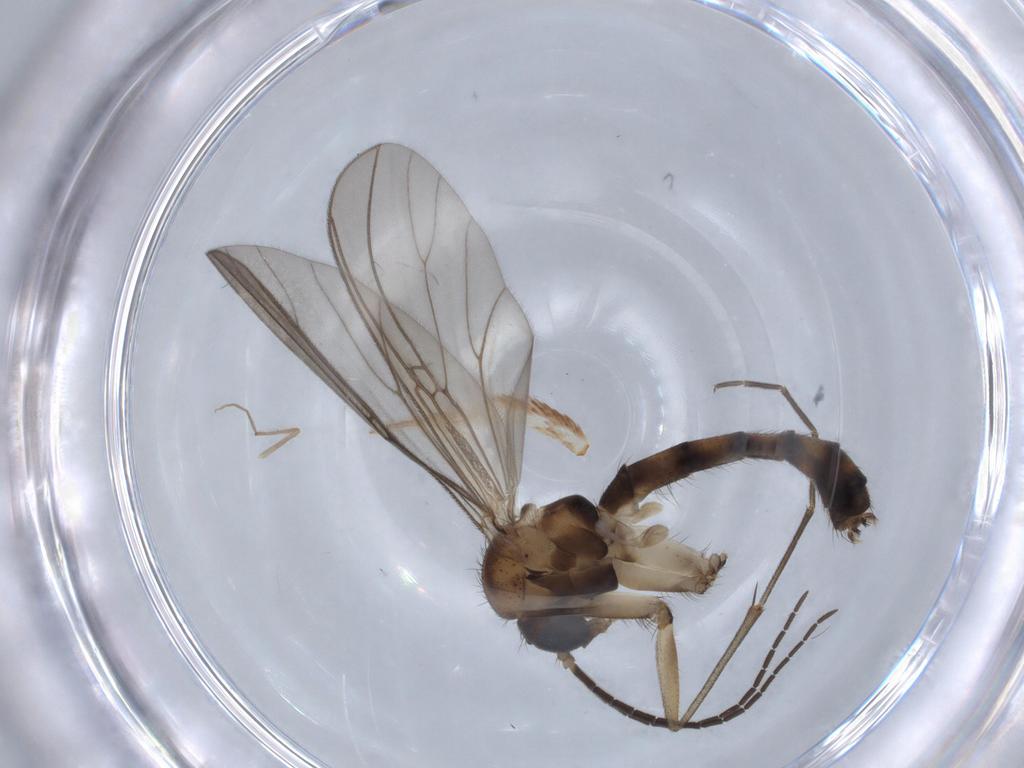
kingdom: Animalia
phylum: Arthropoda
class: Insecta
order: Diptera
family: Mycetophilidae
